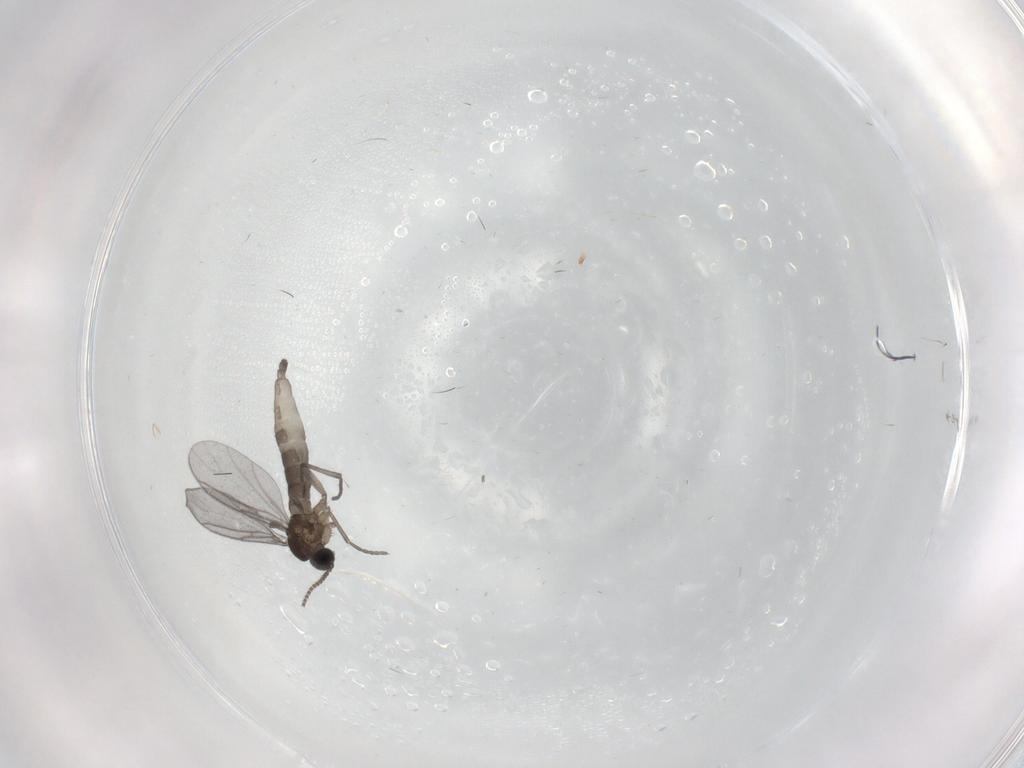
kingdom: Animalia
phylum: Arthropoda
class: Insecta
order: Diptera
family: Sciaridae
